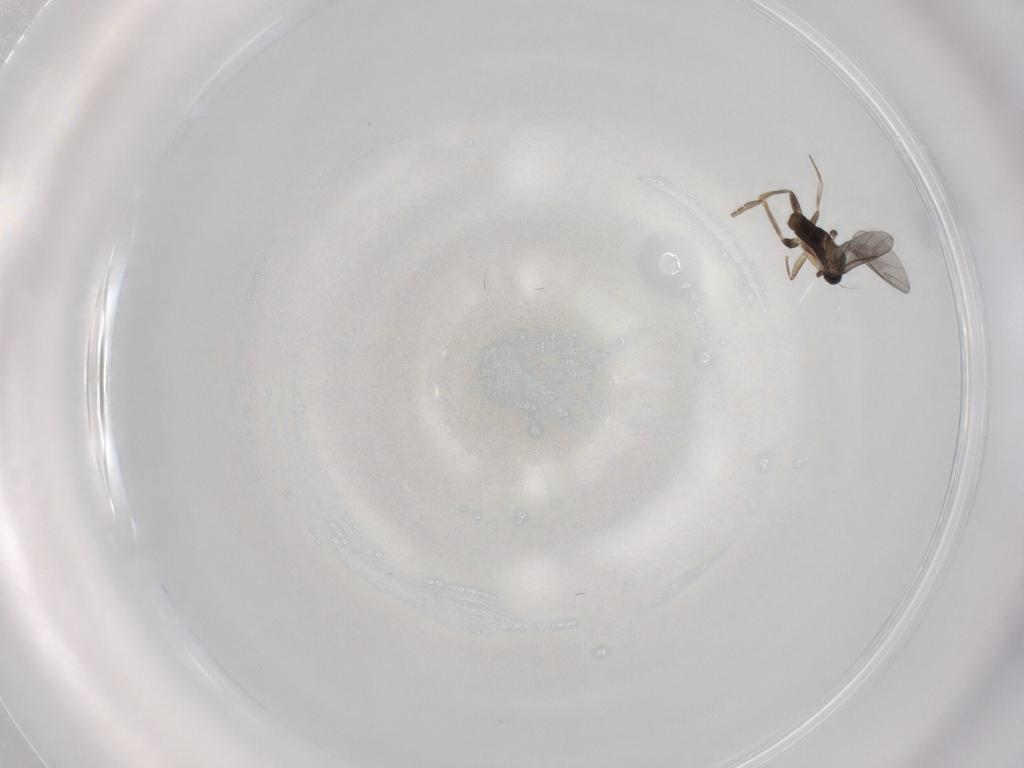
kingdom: Animalia
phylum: Arthropoda
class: Insecta
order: Diptera
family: Phoridae
